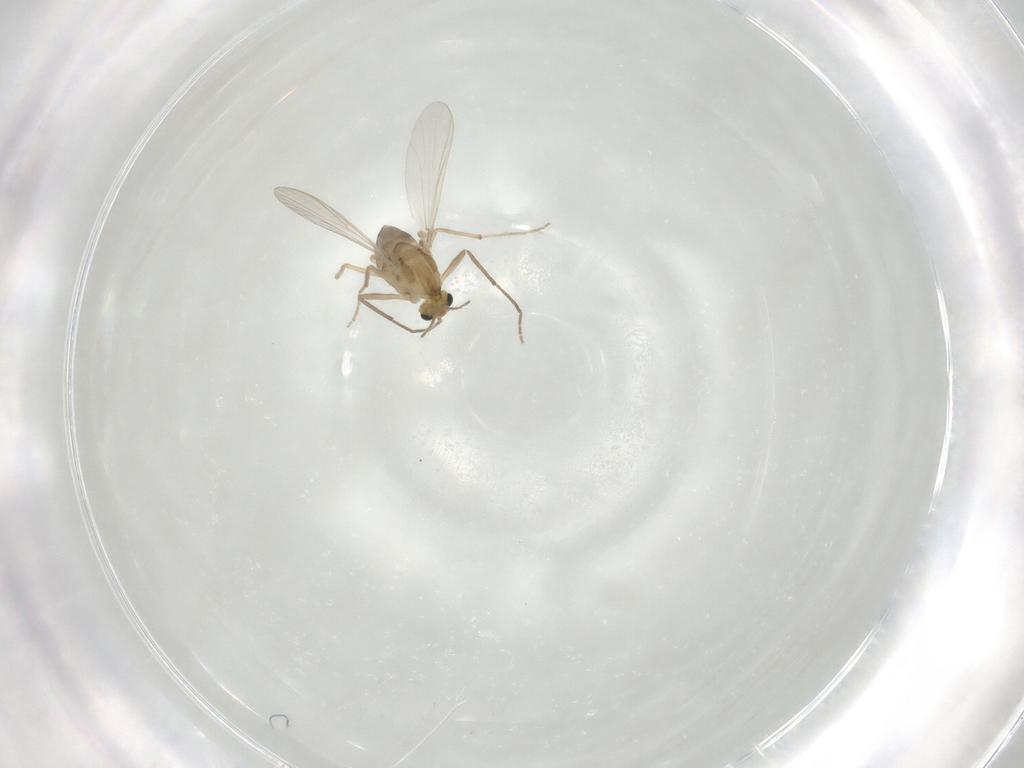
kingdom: Animalia
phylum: Arthropoda
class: Insecta
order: Diptera
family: Chironomidae
